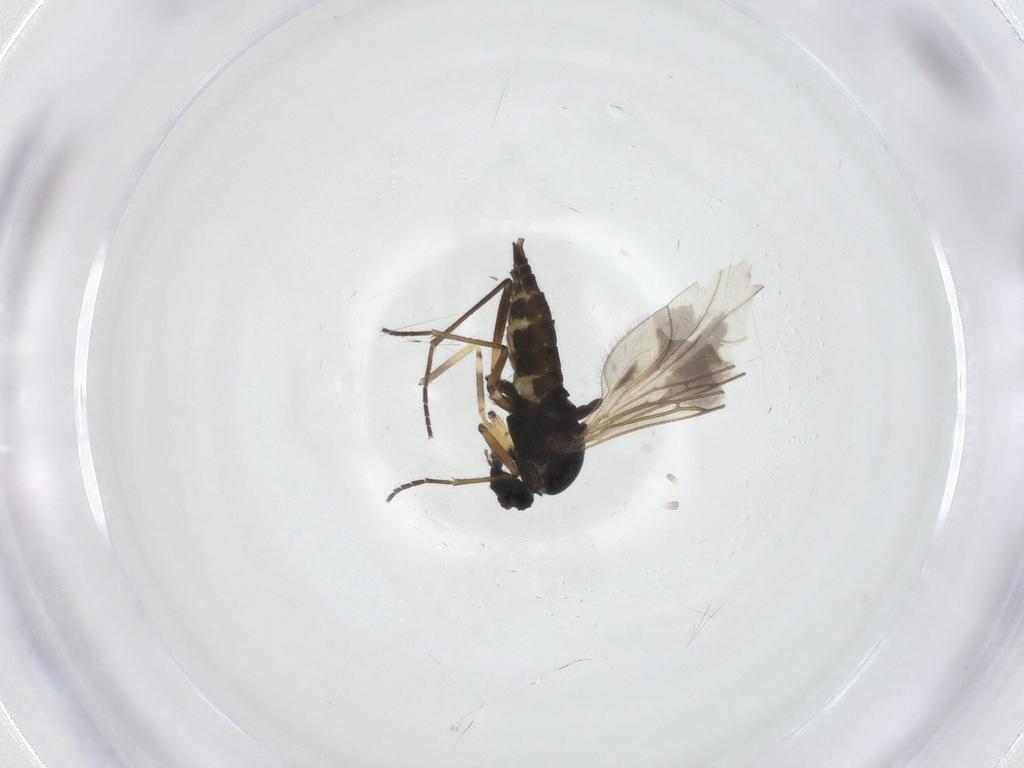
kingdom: Animalia
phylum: Arthropoda
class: Insecta
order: Diptera
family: Sciaridae
